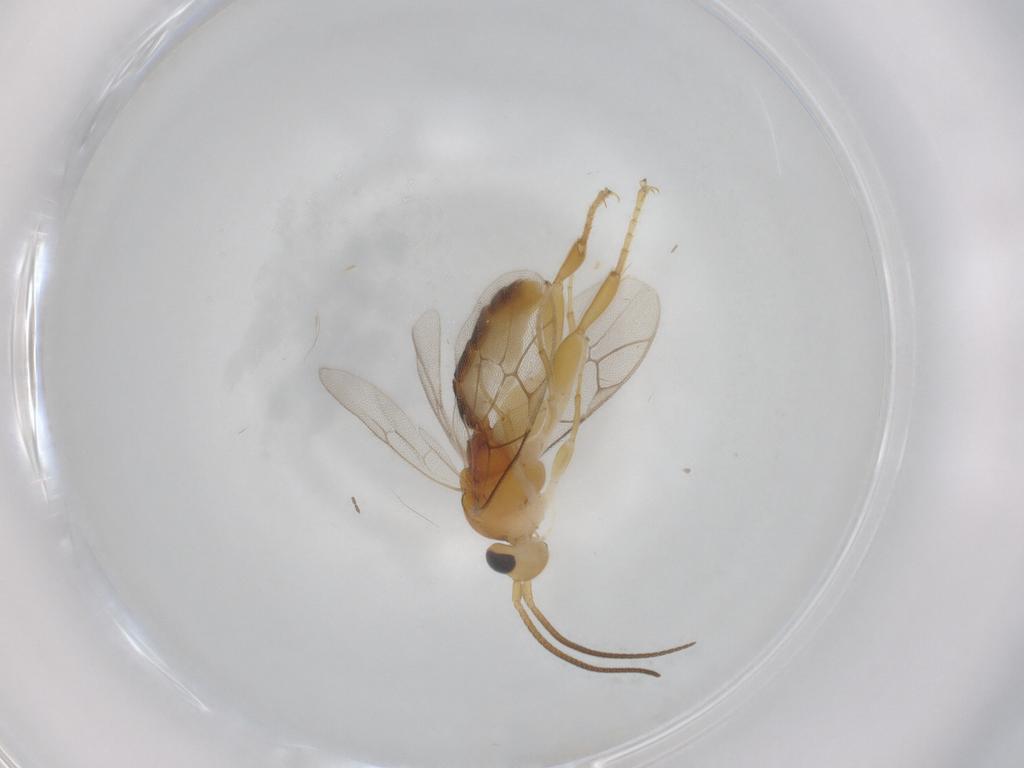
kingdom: Animalia
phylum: Arthropoda
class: Insecta
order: Hymenoptera
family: Ichneumonidae
